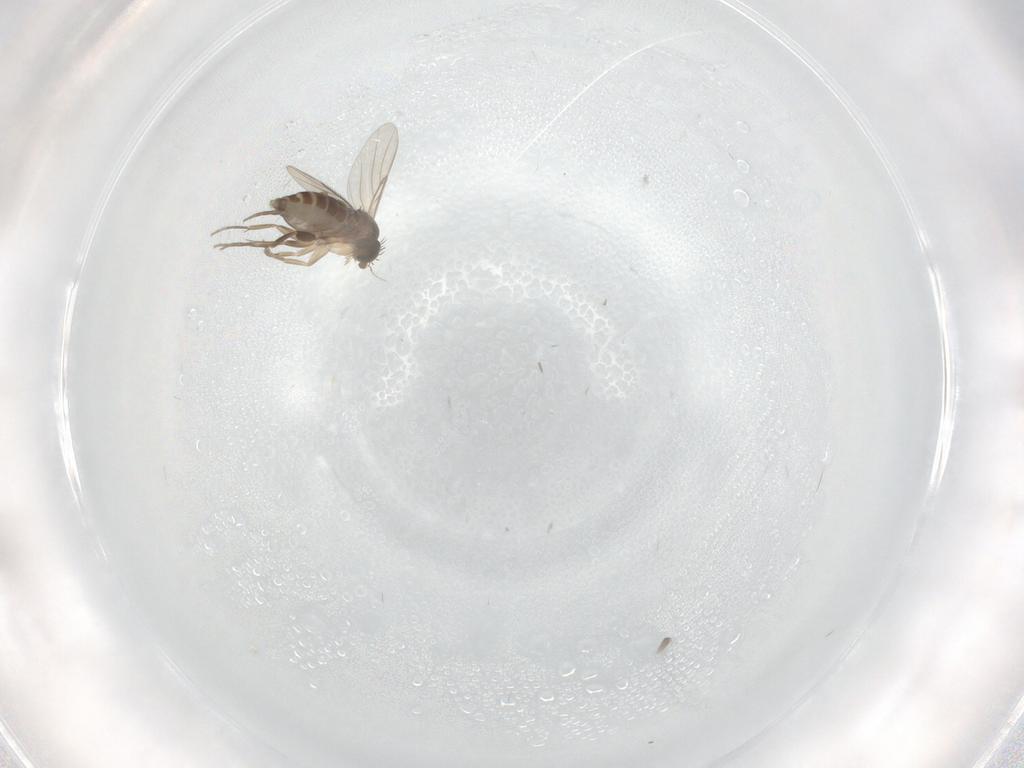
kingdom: Animalia
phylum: Arthropoda
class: Insecta
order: Diptera
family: Phoridae
